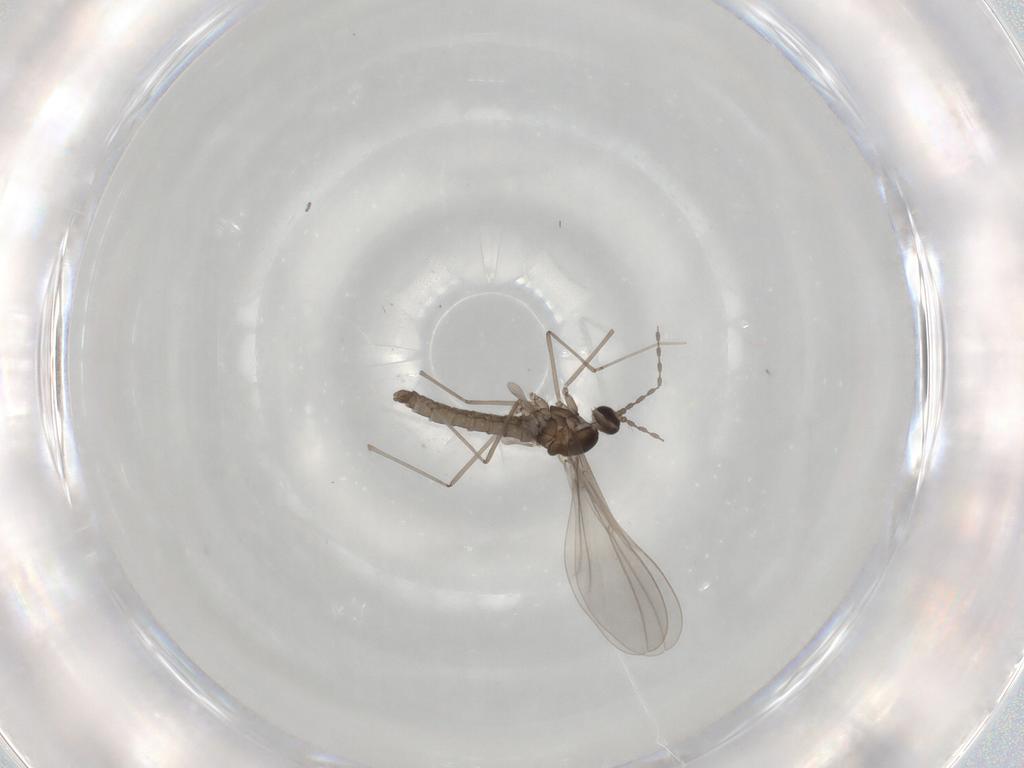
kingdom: Animalia
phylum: Arthropoda
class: Insecta
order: Diptera
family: Cecidomyiidae
